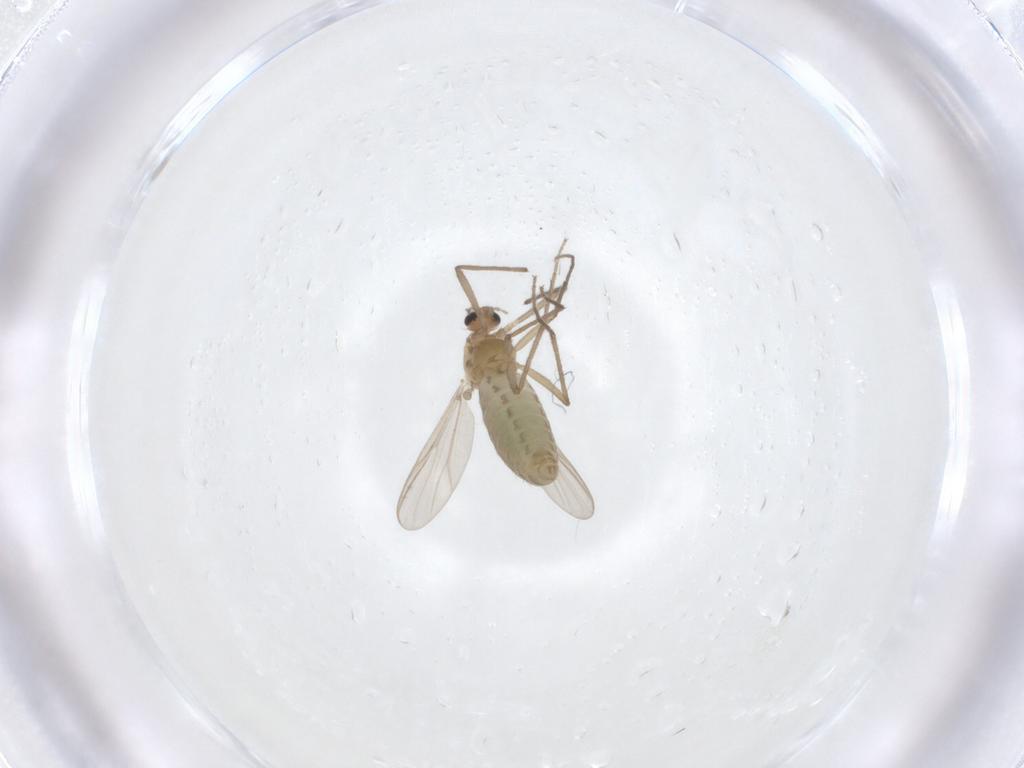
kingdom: Animalia
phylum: Arthropoda
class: Insecta
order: Diptera
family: Chironomidae
